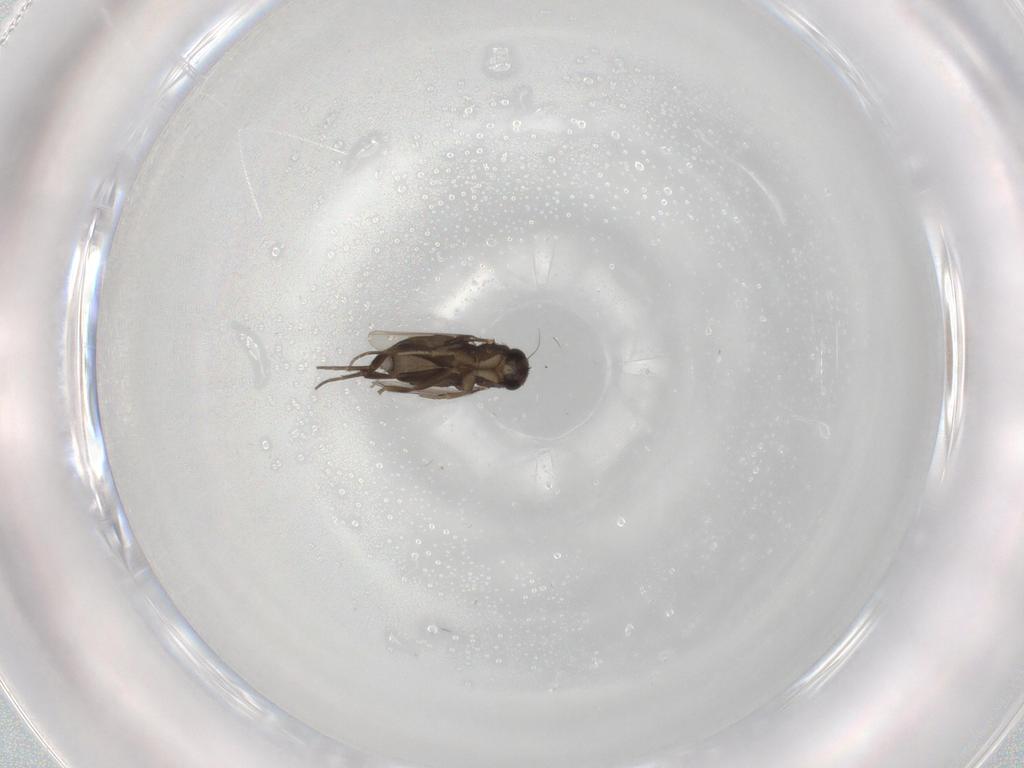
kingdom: Animalia
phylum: Arthropoda
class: Insecta
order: Diptera
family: Phoridae
